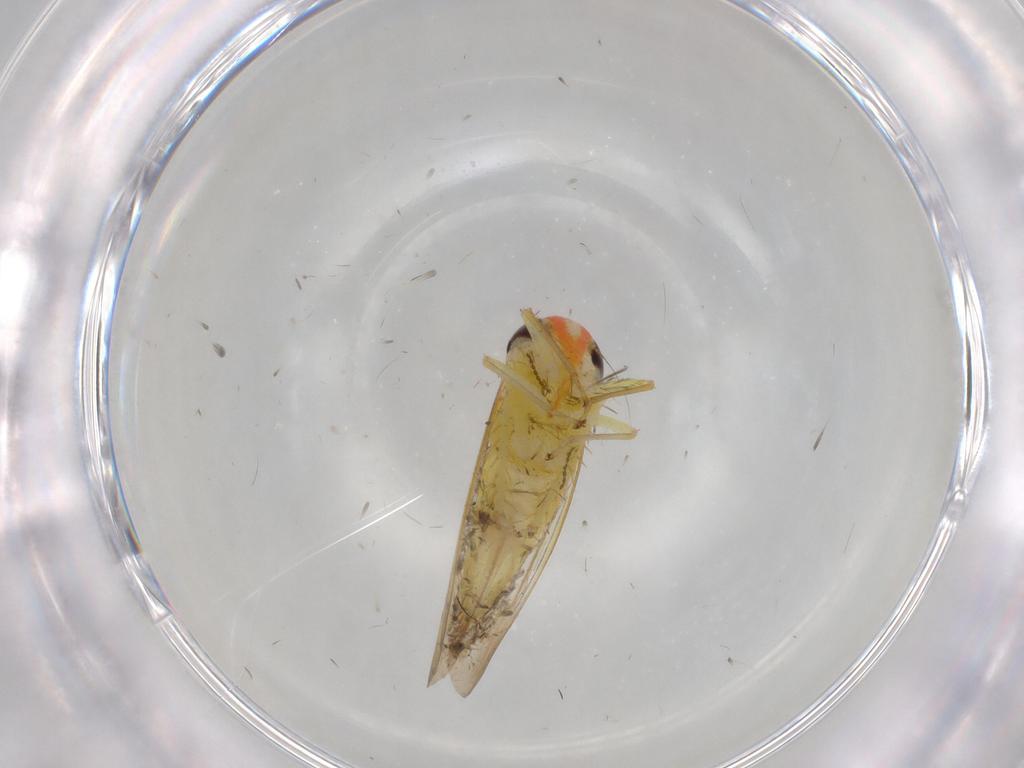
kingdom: Animalia
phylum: Arthropoda
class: Insecta
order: Hemiptera
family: Cicadellidae
